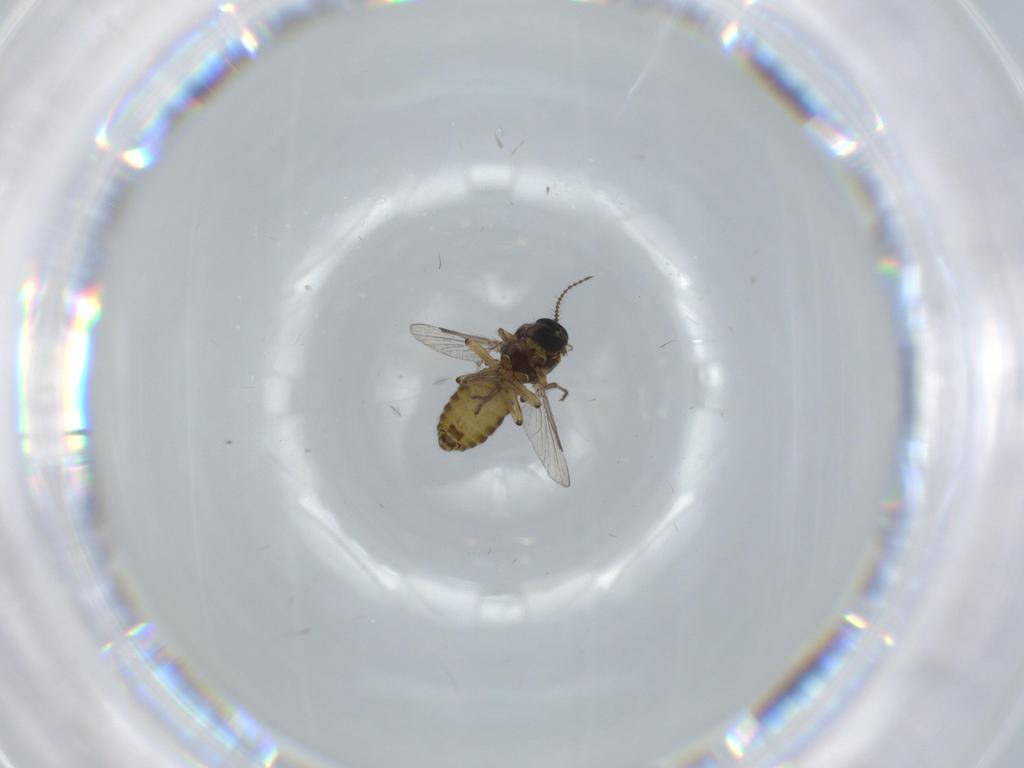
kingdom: Animalia
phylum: Arthropoda
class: Insecta
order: Diptera
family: Ceratopogonidae
